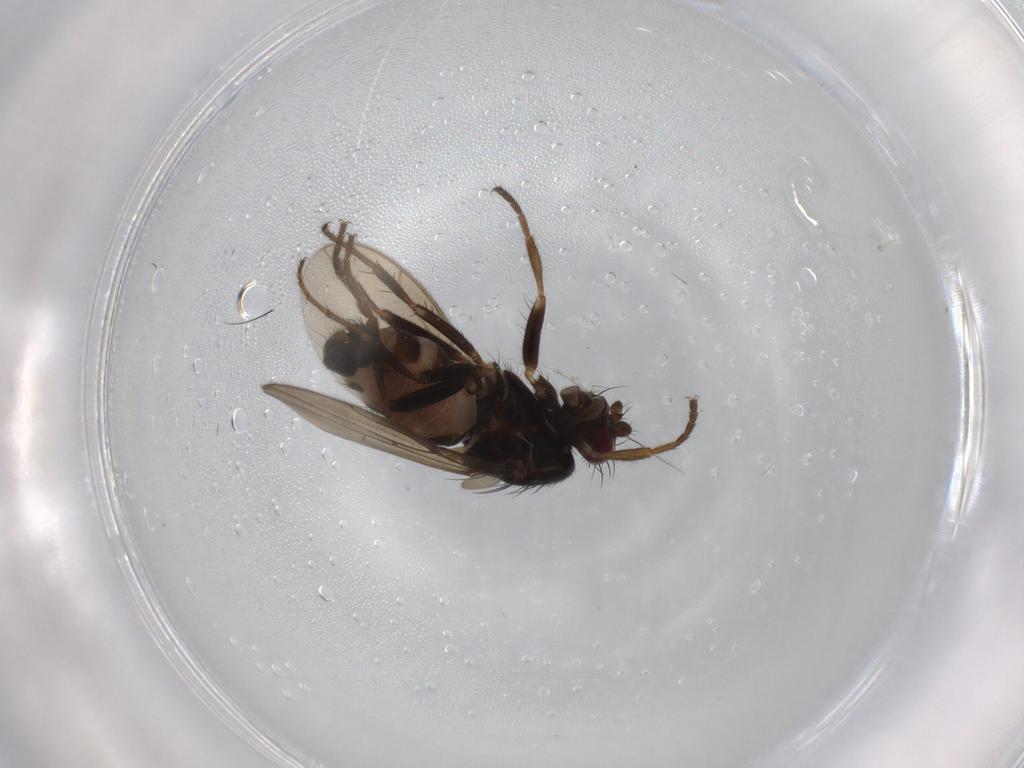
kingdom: Animalia
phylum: Arthropoda
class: Insecta
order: Diptera
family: Sphaeroceridae
